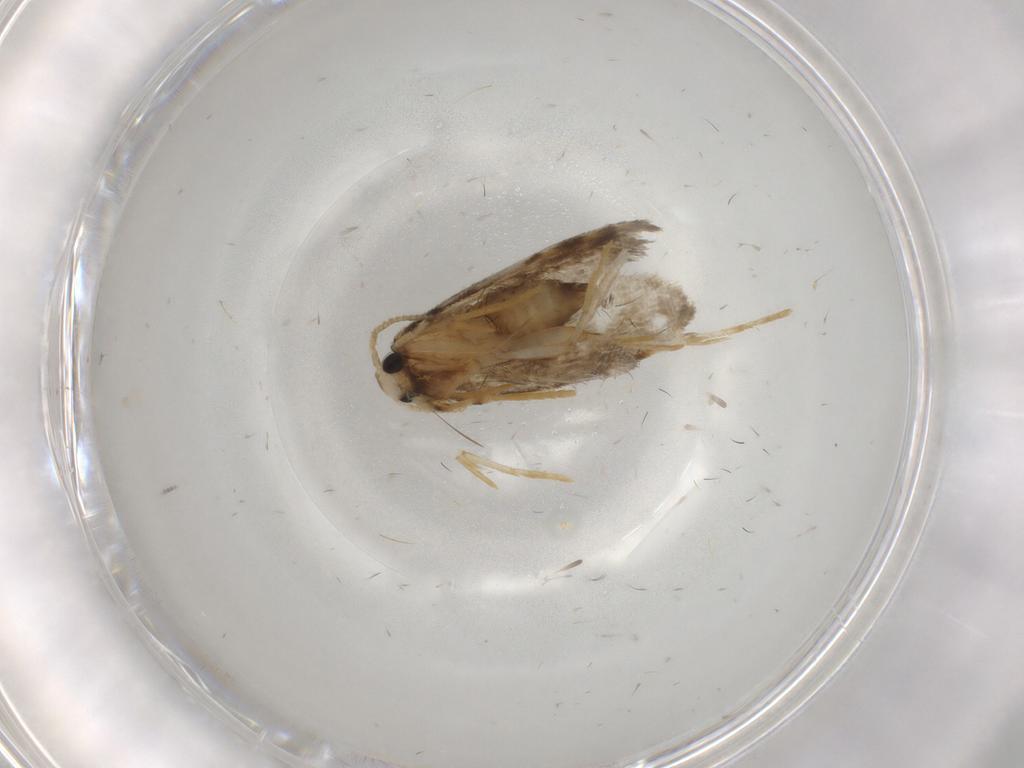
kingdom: Animalia
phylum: Arthropoda
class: Insecta
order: Lepidoptera
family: Psychidae
